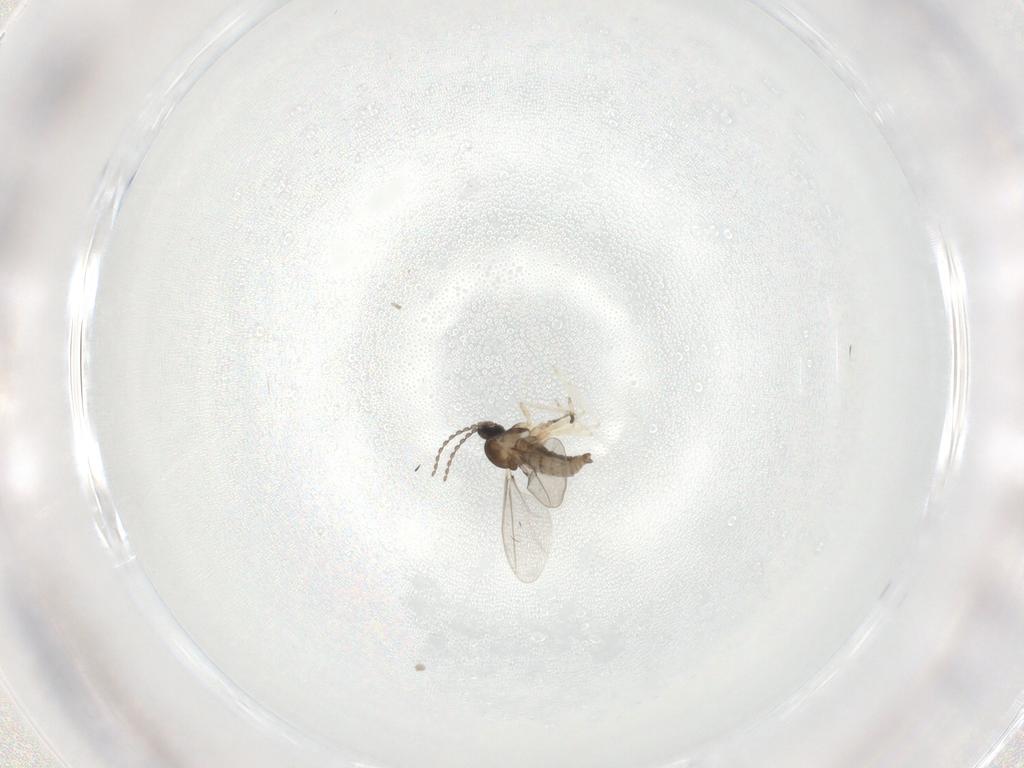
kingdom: Animalia
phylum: Arthropoda
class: Insecta
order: Diptera
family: Cecidomyiidae
